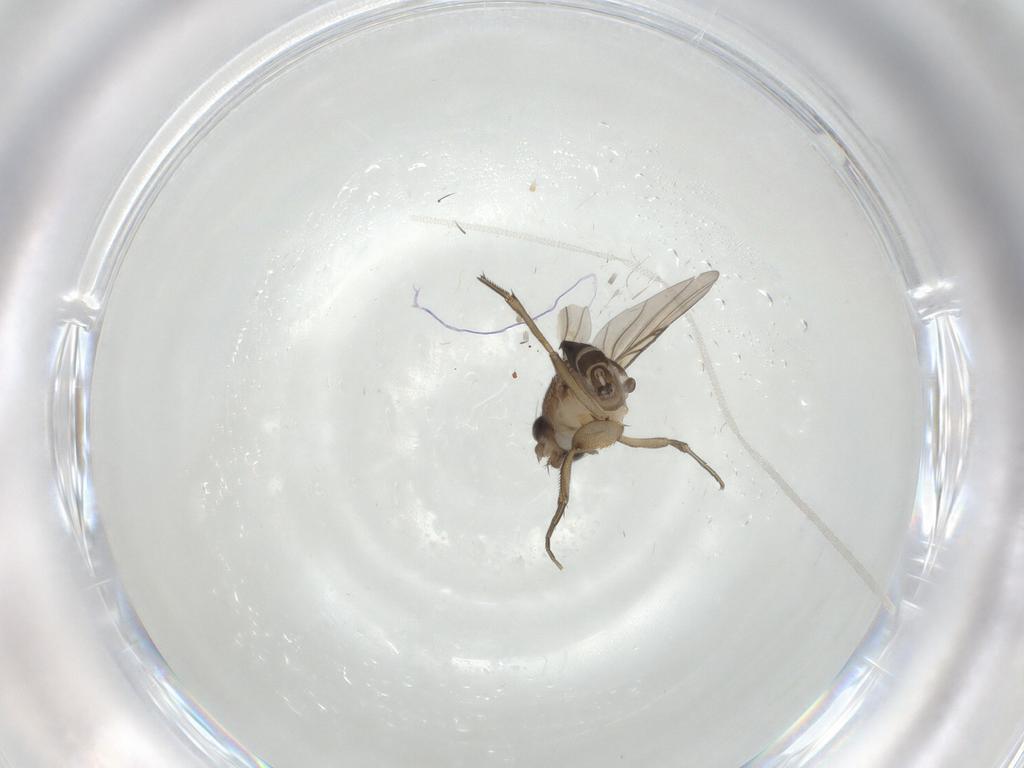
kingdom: Animalia
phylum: Arthropoda
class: Insecta
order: Diptera
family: Phoridae
